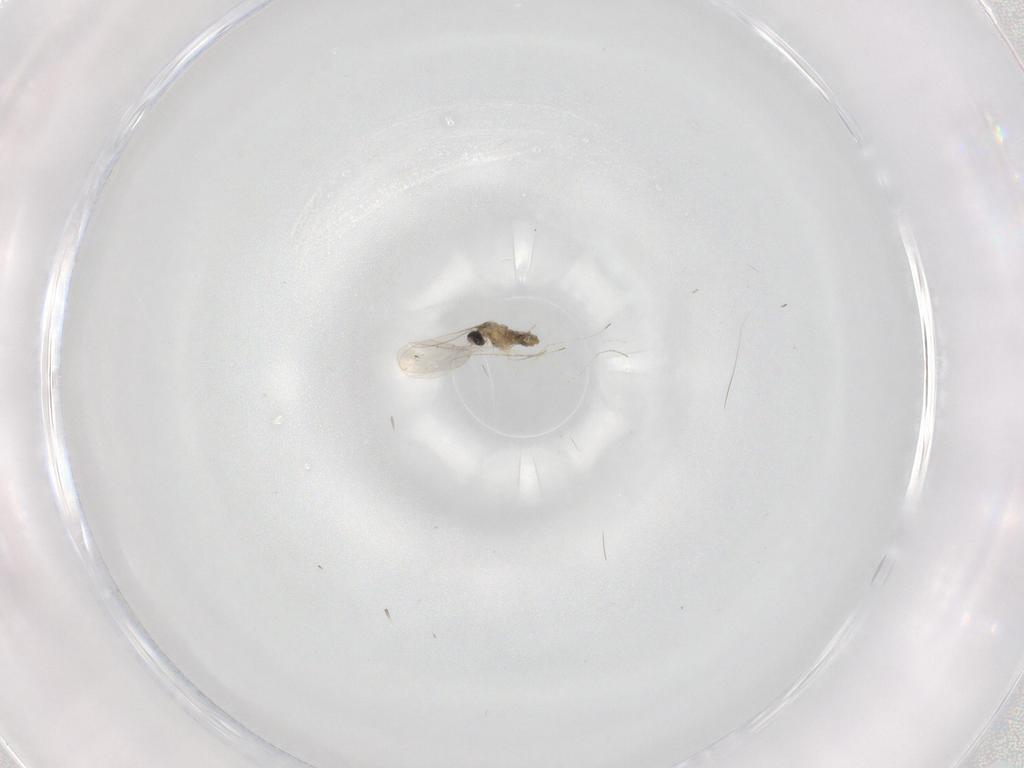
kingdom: Animalia
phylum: Arthropoda
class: Insecta
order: Diptera
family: Cecidomyiidae
